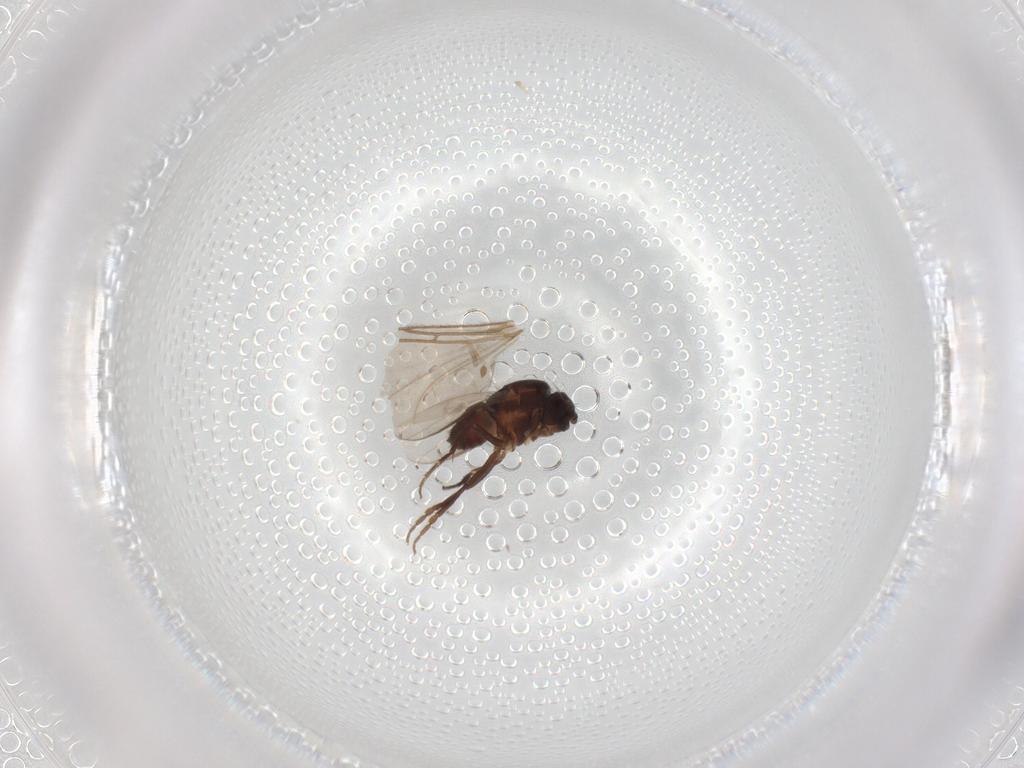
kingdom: Animalia
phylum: Arthropoda
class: Insecta
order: Diptera
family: Sphaeroceridae
